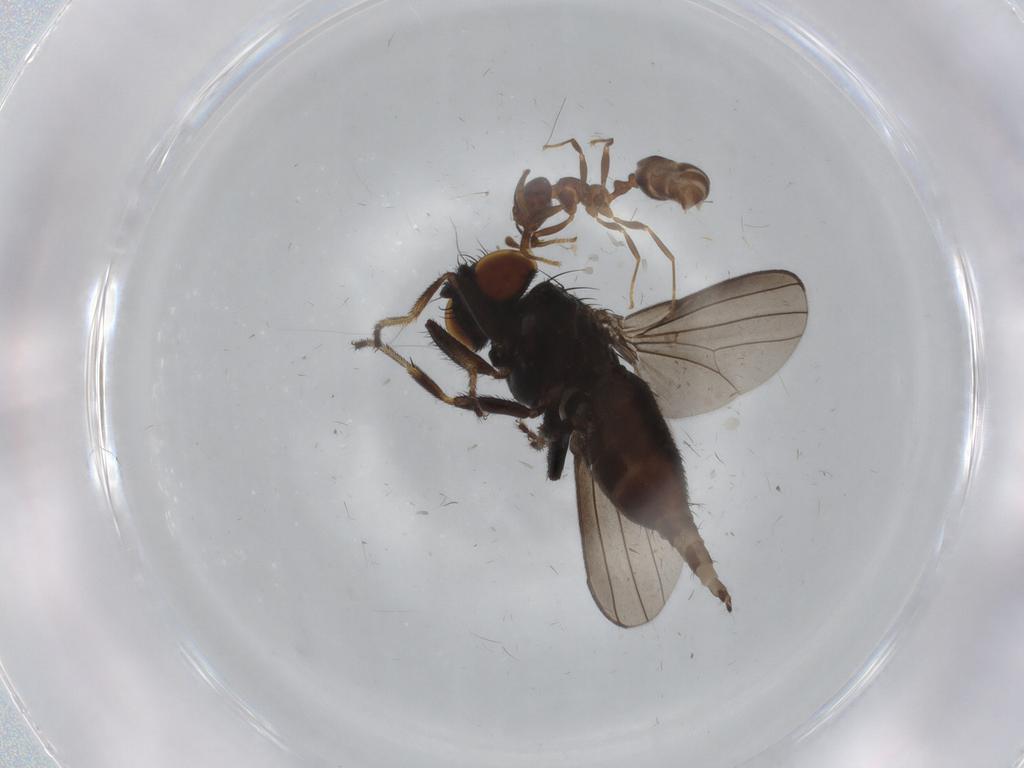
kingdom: Animalia
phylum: Arthropoda
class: Insecta
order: Diptera
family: Milichiidae
